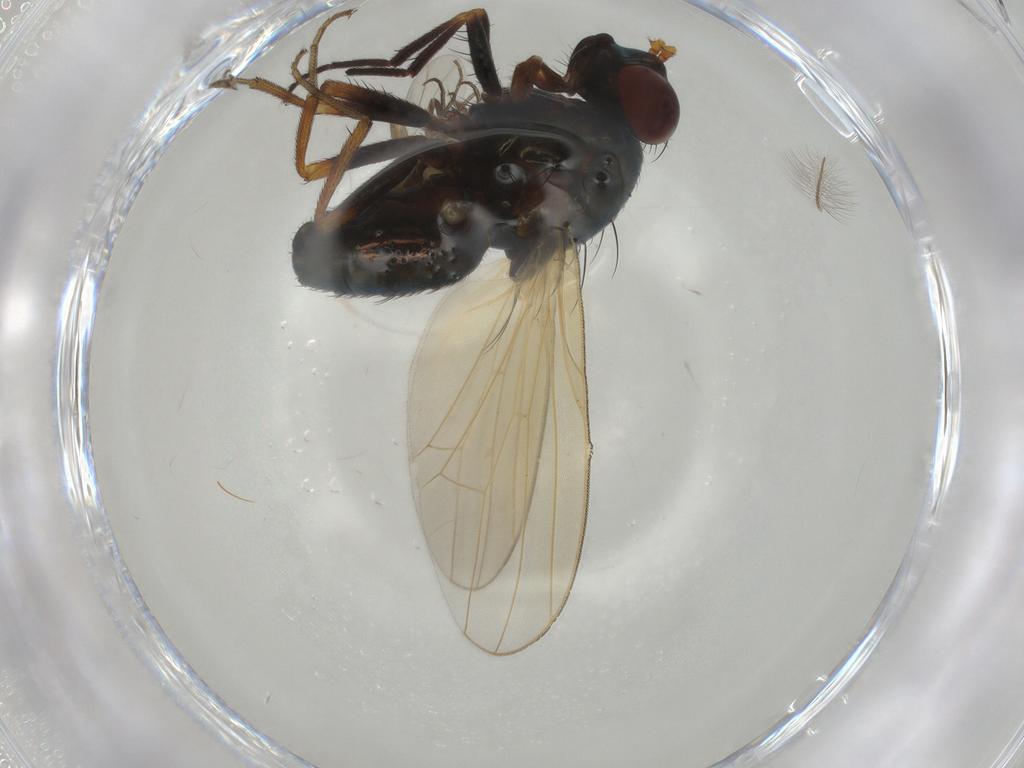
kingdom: Animalia
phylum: Arthropoda
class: Insecta
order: Diptera
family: Lauxaniidae
